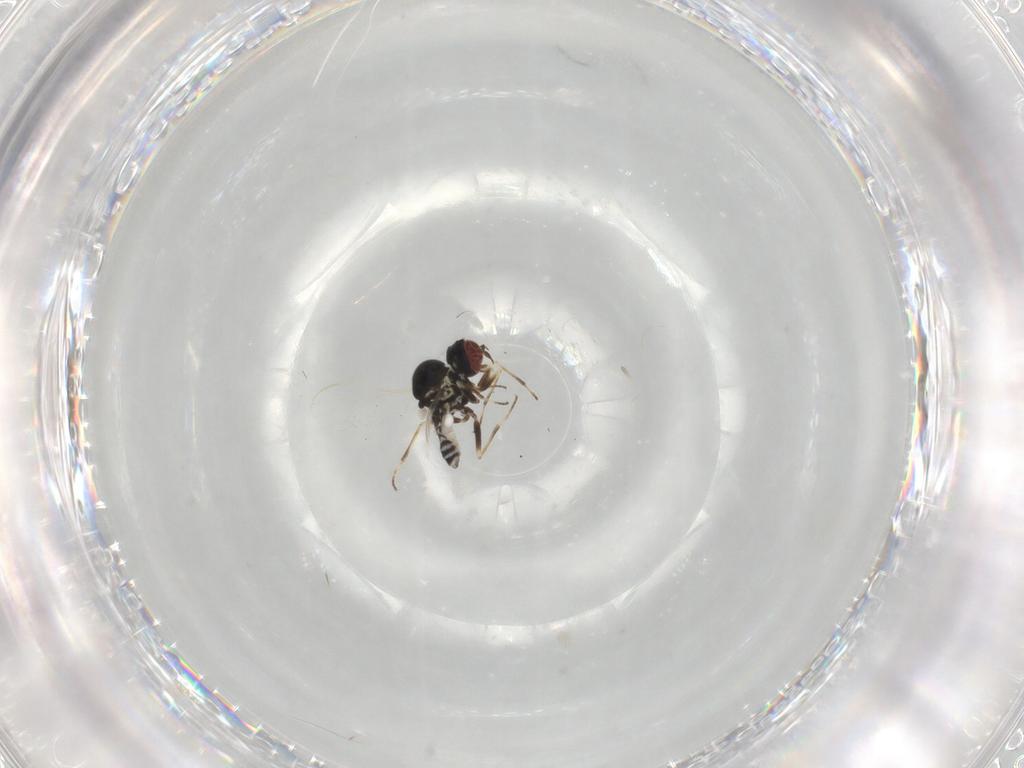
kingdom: Animalia
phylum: Arthropoda
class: Insecta
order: Diptera
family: Mythicomyiidae
